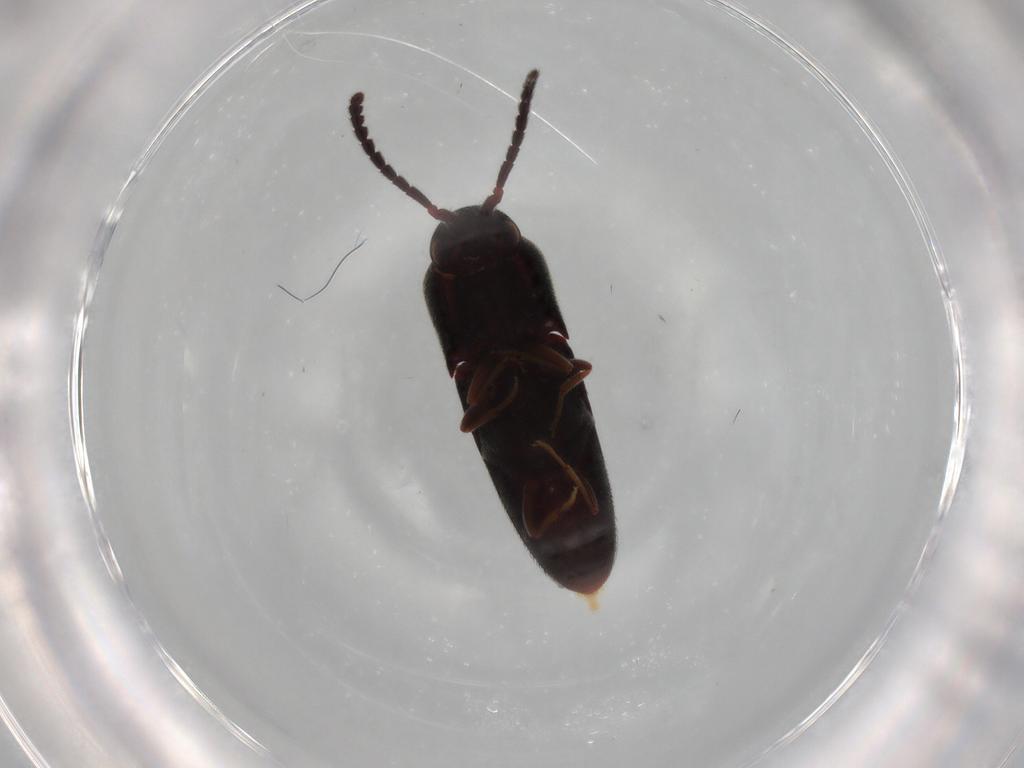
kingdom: Animalia
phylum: Arthropoda
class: Insecta
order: Coleoptera
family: Eucnemidae
